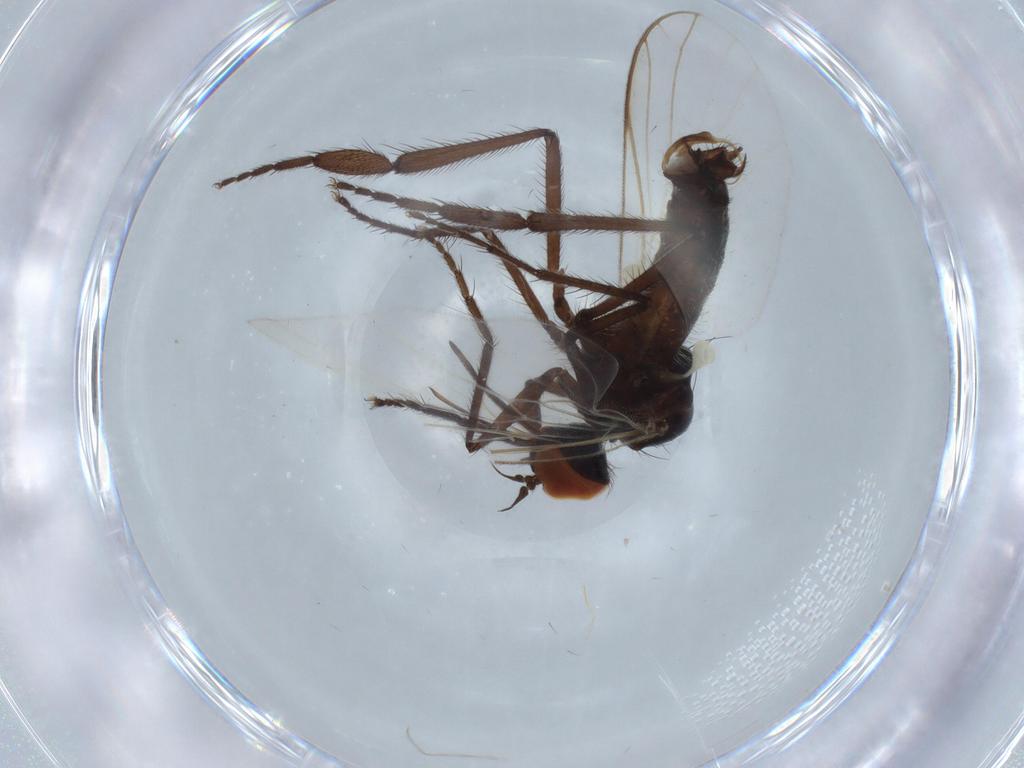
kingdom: Animalia
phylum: Arthropoda
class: Insecta
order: Diptera
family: Empididae
